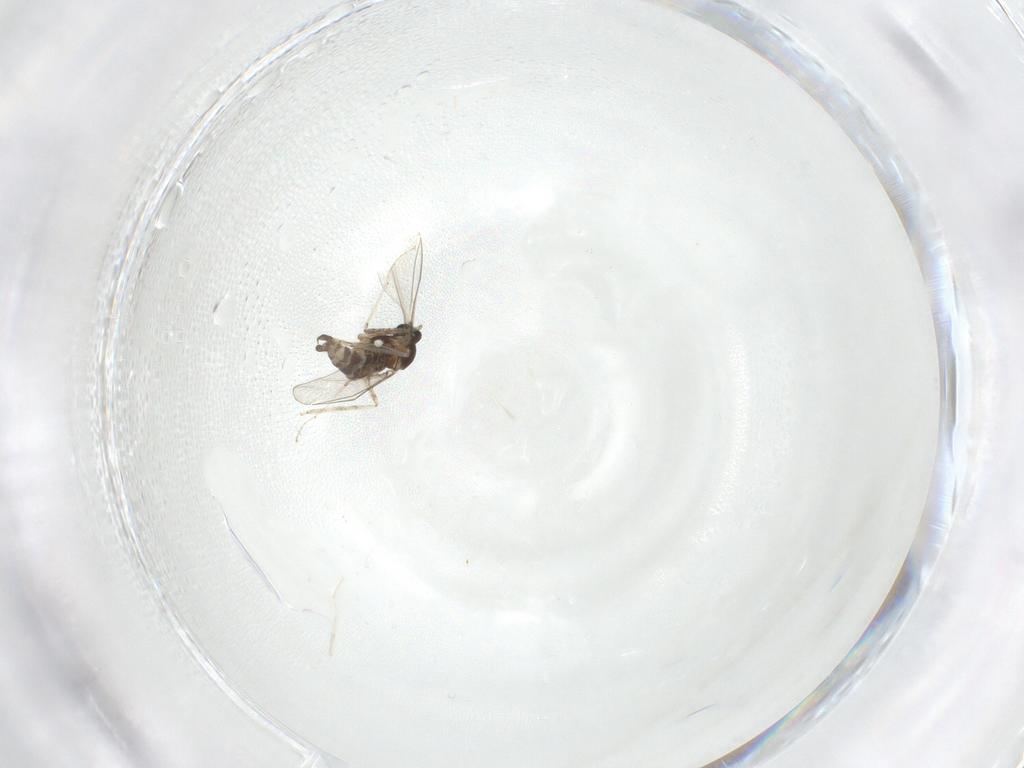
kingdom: Animalia
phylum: Arthropoda
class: Insecta
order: Diptera
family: Cecidomyiidae
